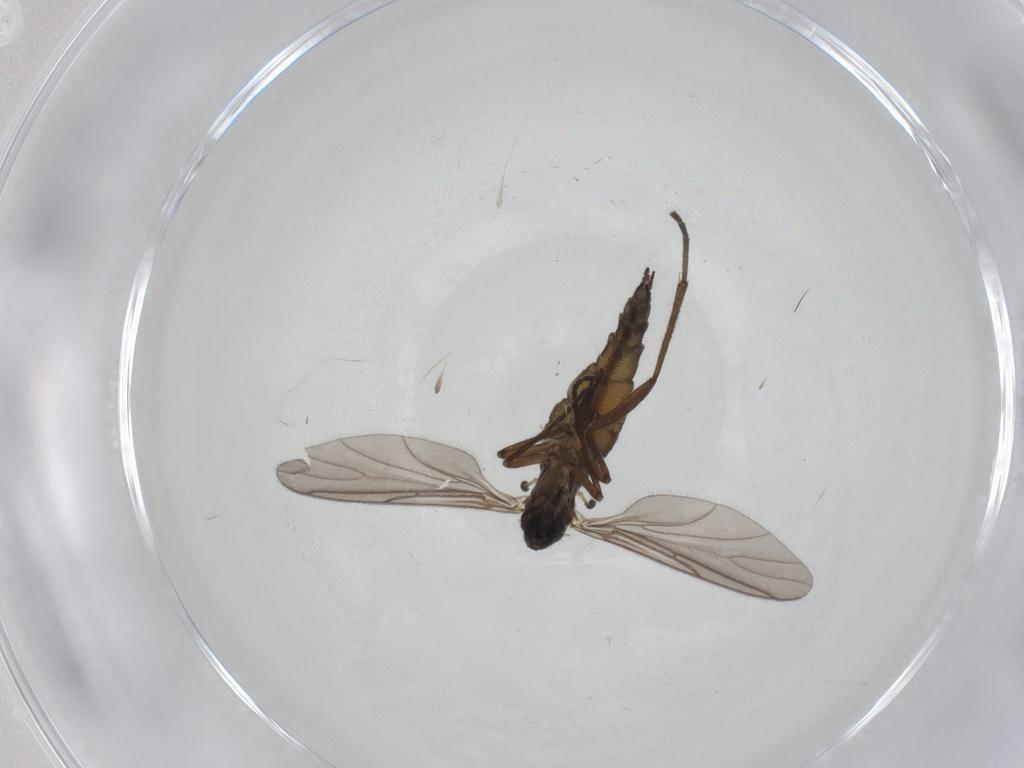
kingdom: Animalia
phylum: Arthropoda
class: Insecta
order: Diptera
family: Sciaridae
